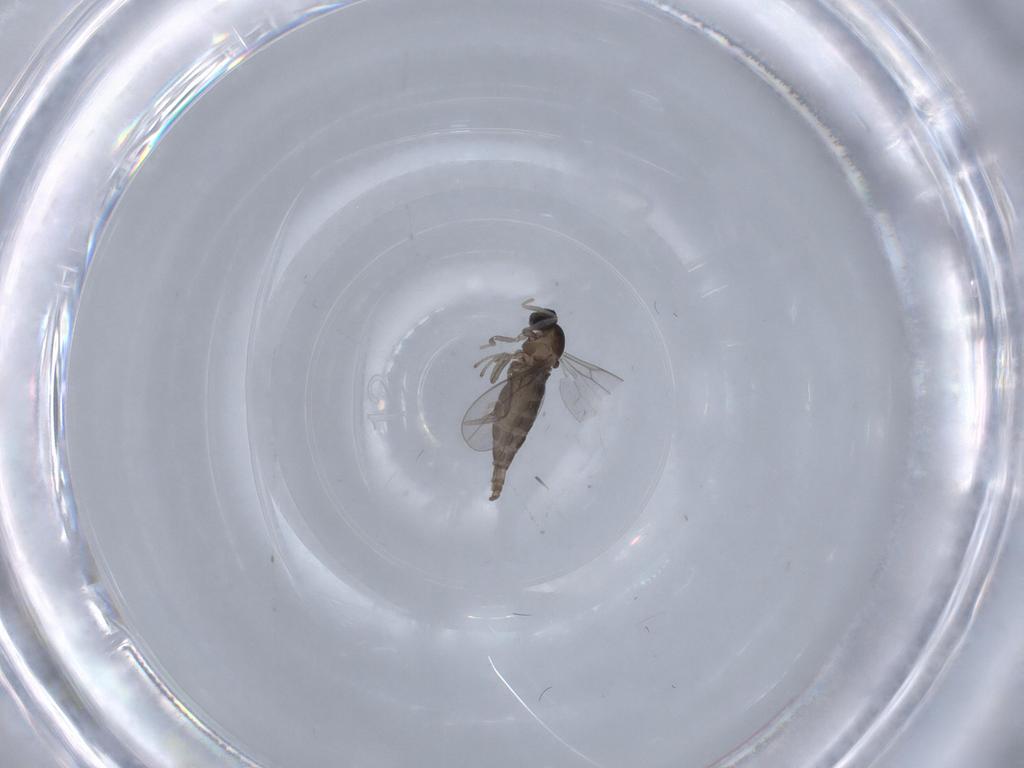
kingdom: Animalia
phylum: Arthropoda
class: Insecta
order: Diptera
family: Cecidomyiidae
